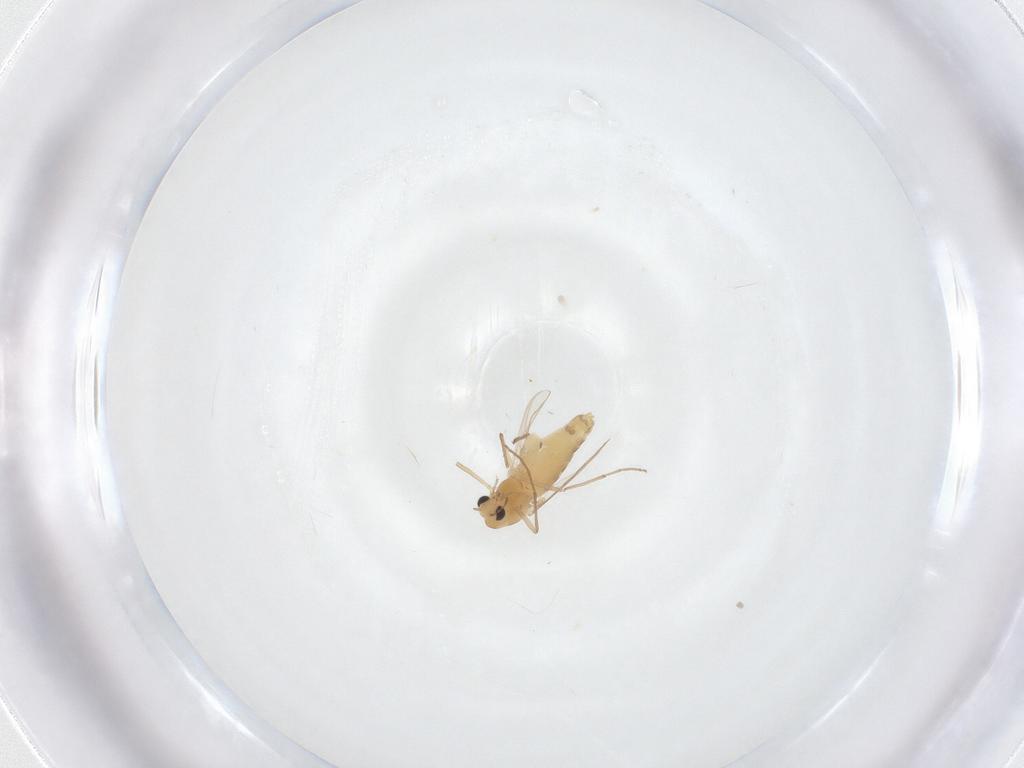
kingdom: Animalia
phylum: Arthropoda
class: Insecta
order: Diptera
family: Chironomidae
